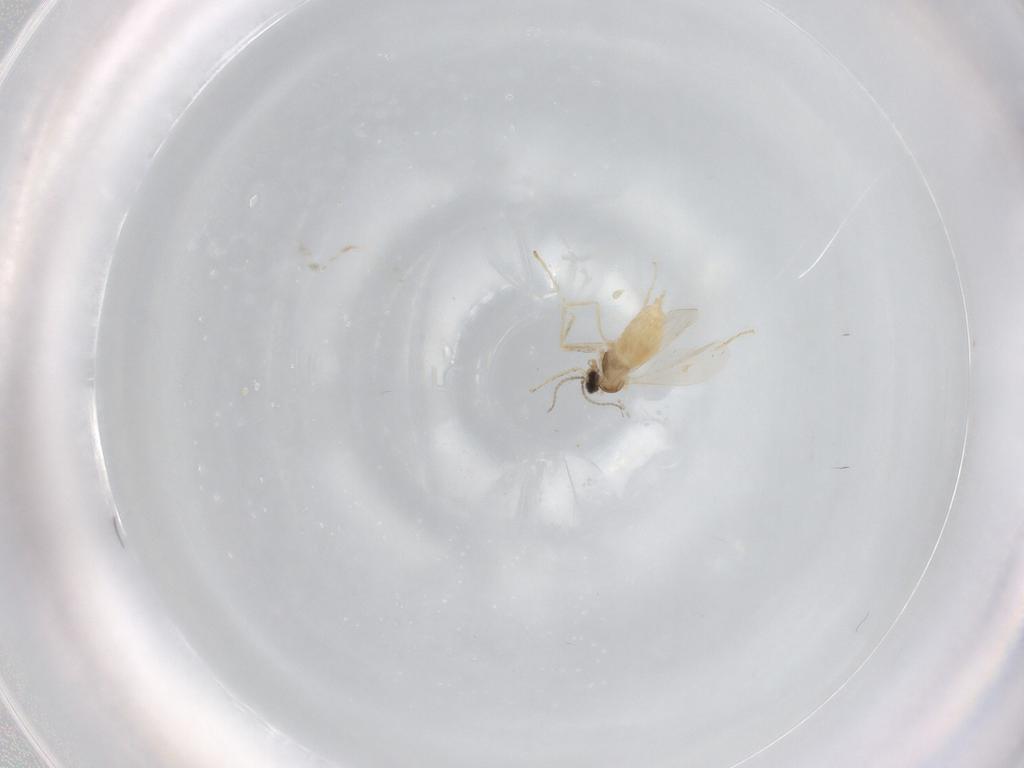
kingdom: Animalia
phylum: Arthropoda
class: Insecta
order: Diptera
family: Cecidomyiidae
